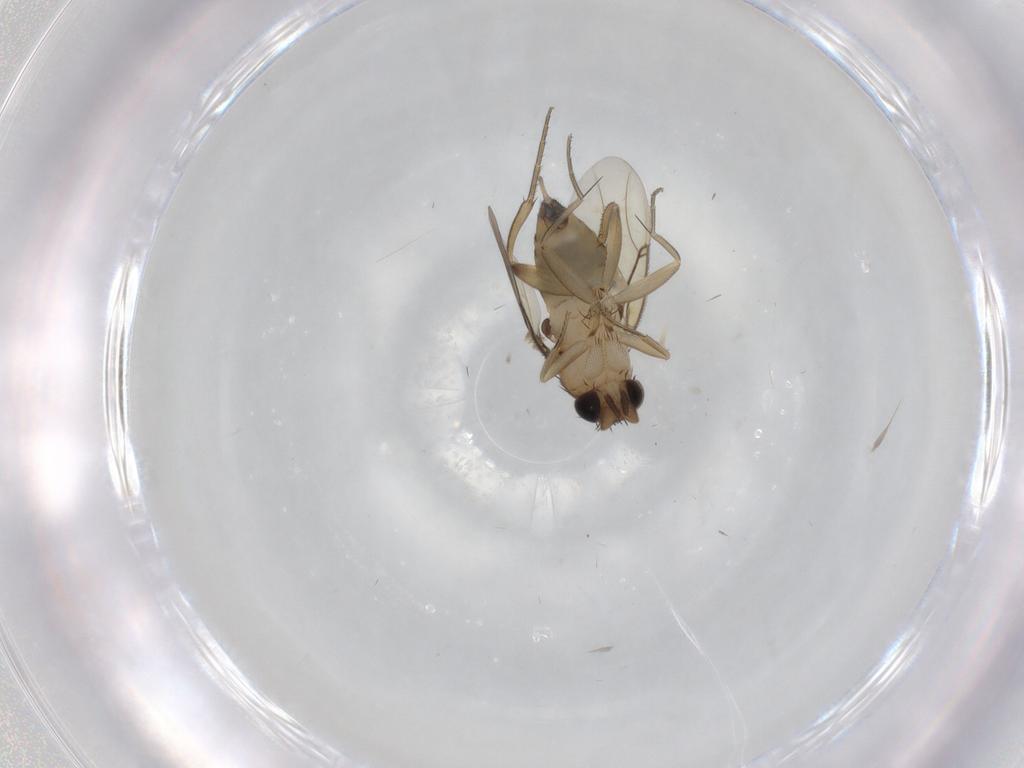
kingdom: Animalia
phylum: Arthropoda
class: Insecta
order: Diptera
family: Phoridae
